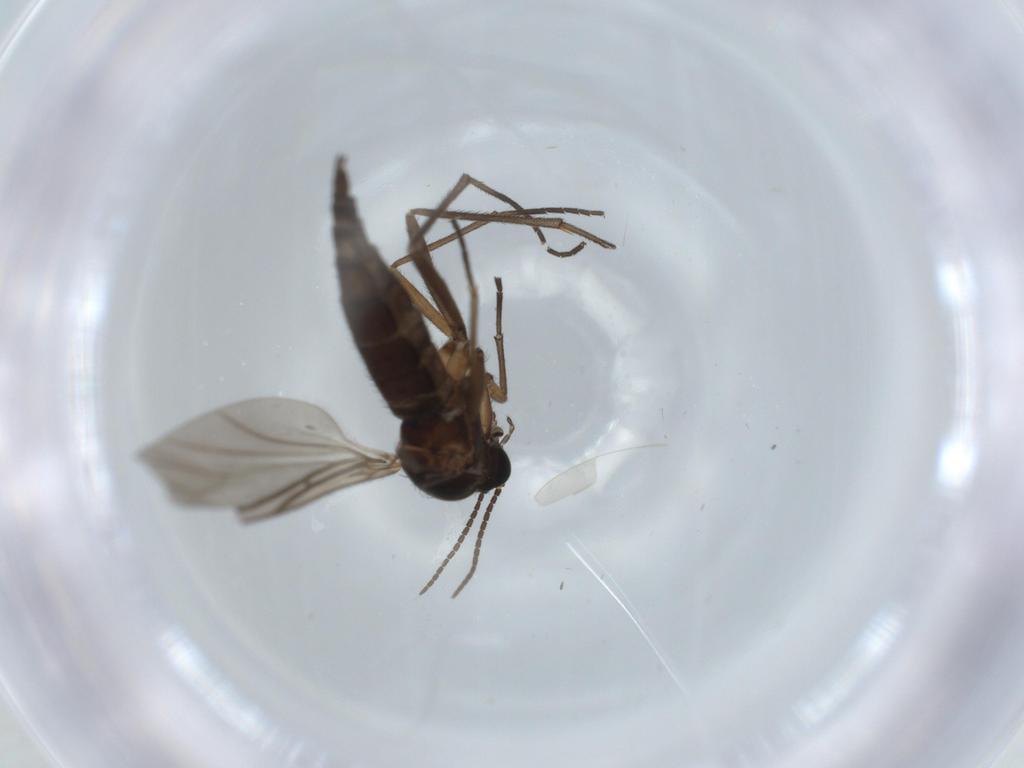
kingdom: Animalia
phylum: Arthropoda
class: Insecta
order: Diptera
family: Sciaridae
